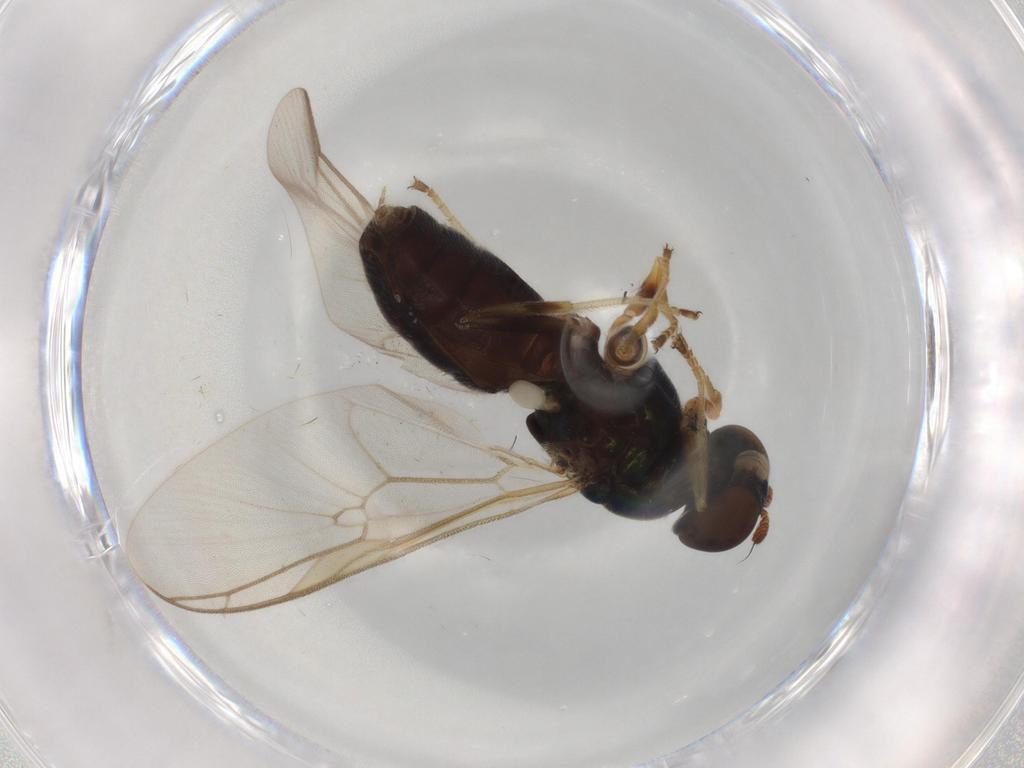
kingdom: Animalia
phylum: Arthropoda
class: Insecta
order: Diptera
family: Drosophilidae
